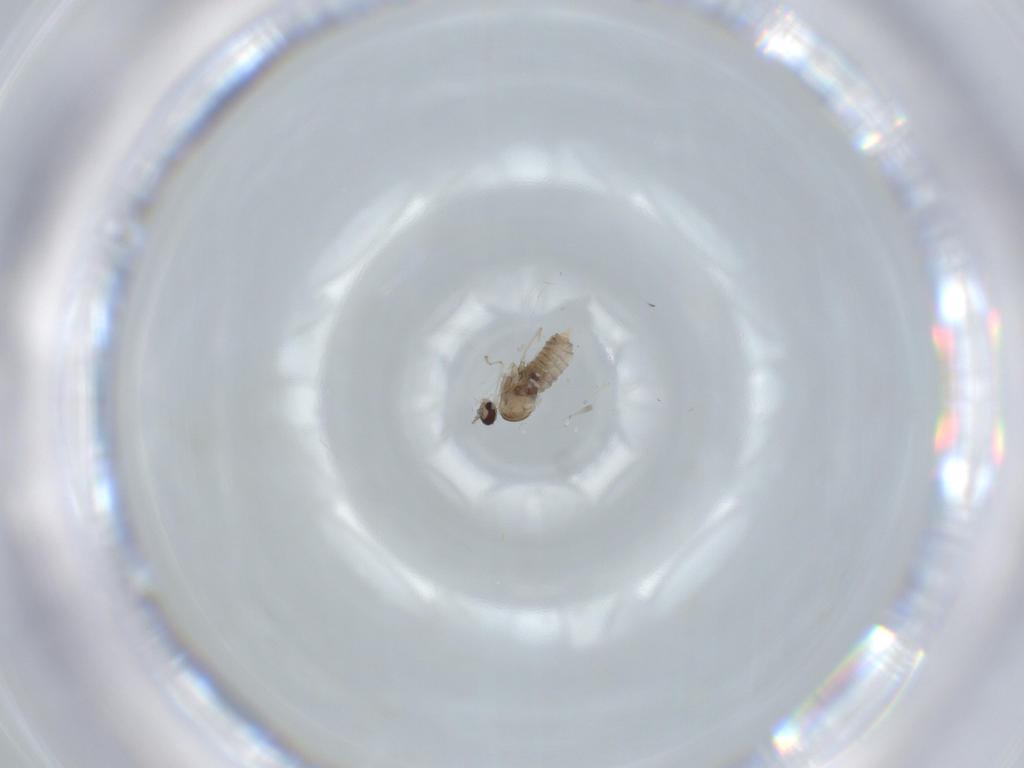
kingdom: Animalia
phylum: Arthropoda
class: Insecta
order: Diptera
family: Cecidomyiidae
